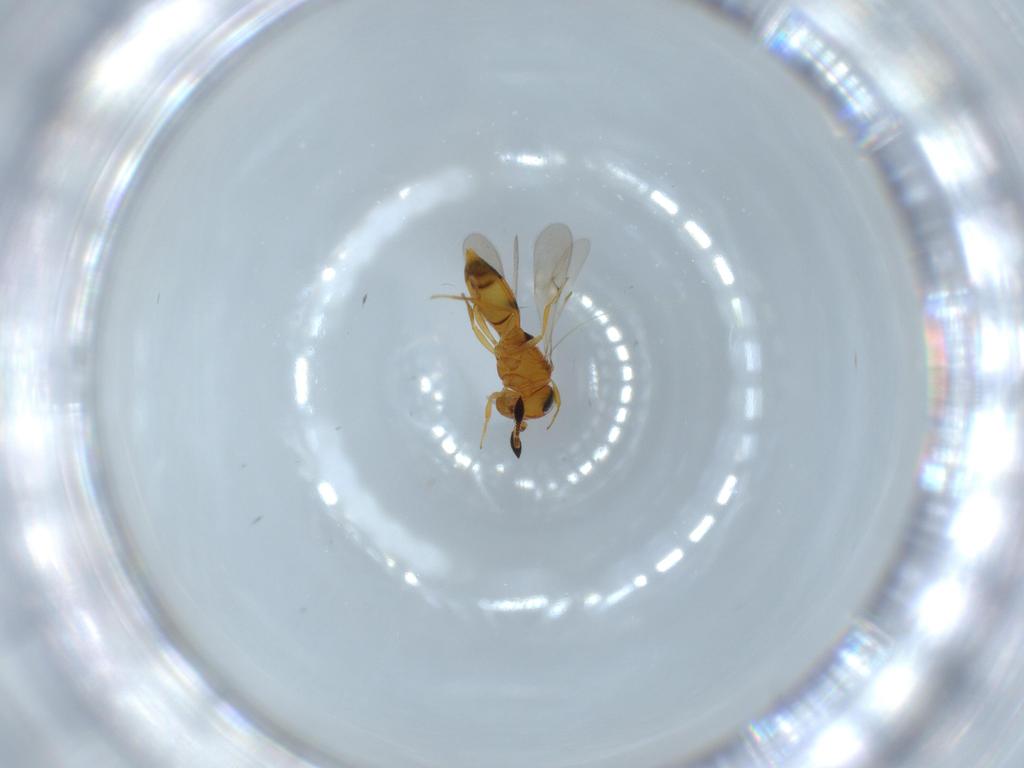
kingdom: Animalia
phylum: Arthropoda
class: Insecta
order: Hymenoptera
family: Scelionidae
